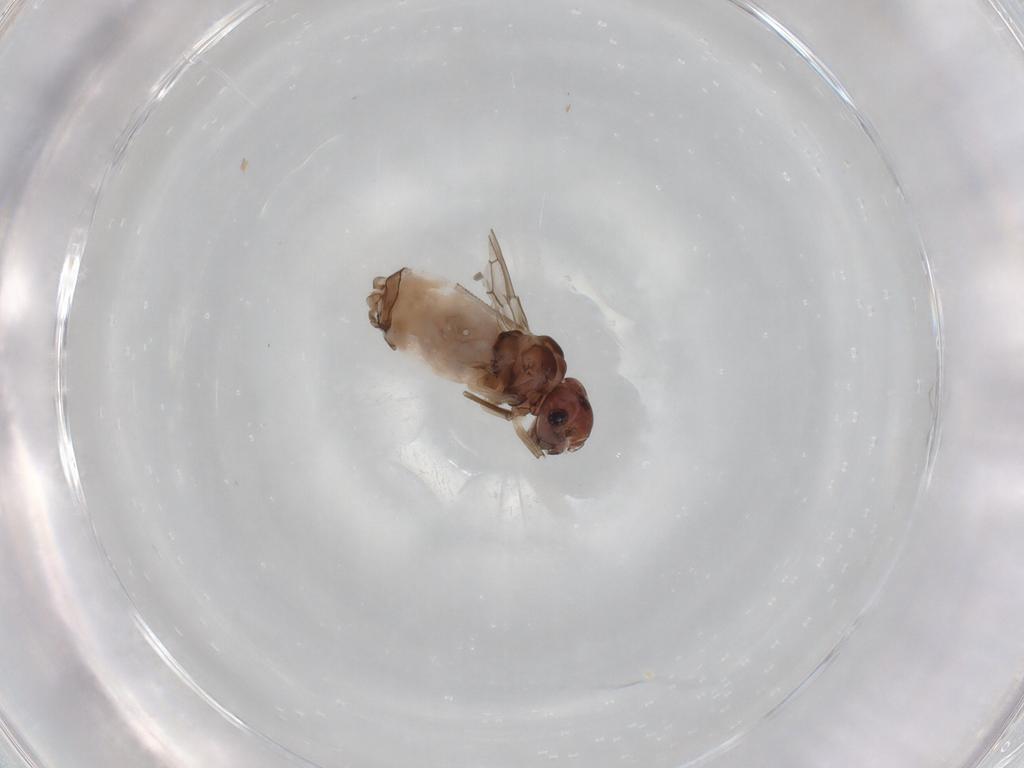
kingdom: Animalia
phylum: Arthropoda
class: Insecta
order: Psocodea
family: Peripsocidae
